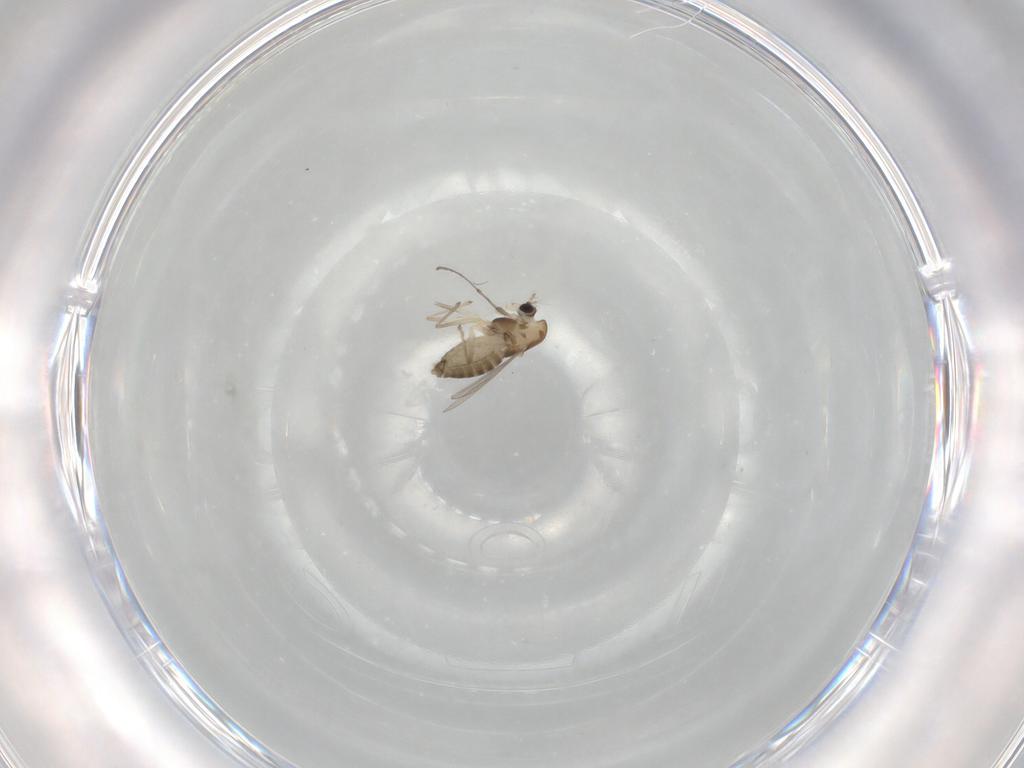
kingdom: Animalia
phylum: Arthropoda
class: Insecta
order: Diptera
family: Chironomidae
